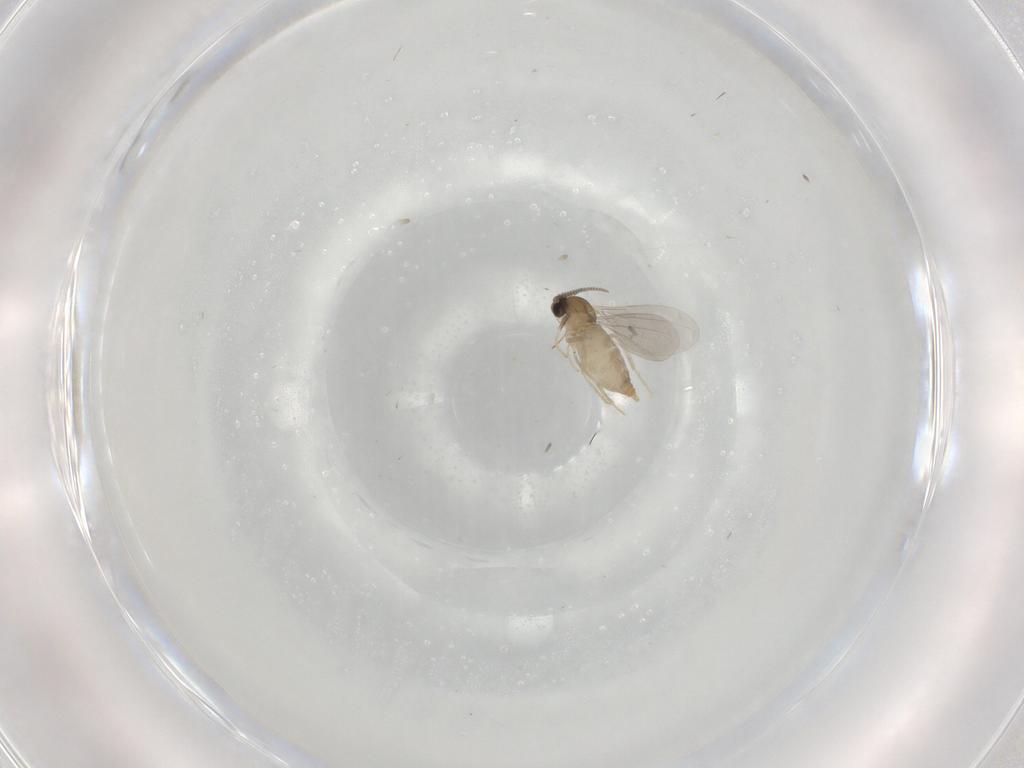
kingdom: Animalia
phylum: Arthropoda
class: Insecta
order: Diptera
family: Cecidomyiidae
